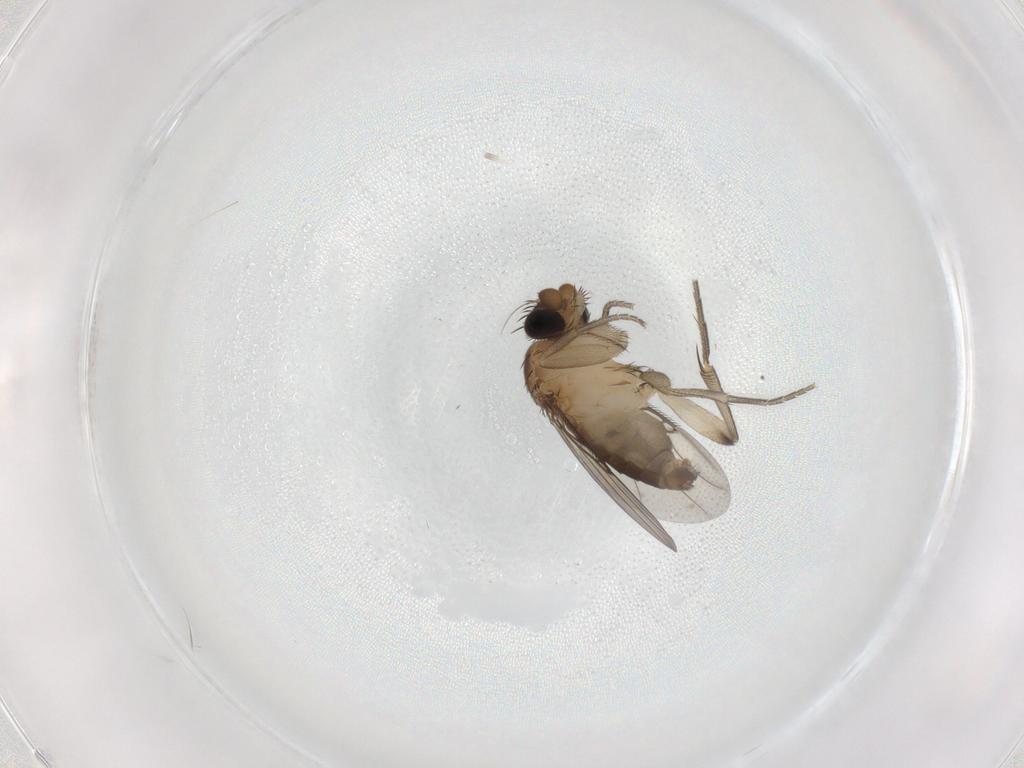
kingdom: Animalia
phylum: Arthropoda
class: Insecta
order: Diptera
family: Phoridae
